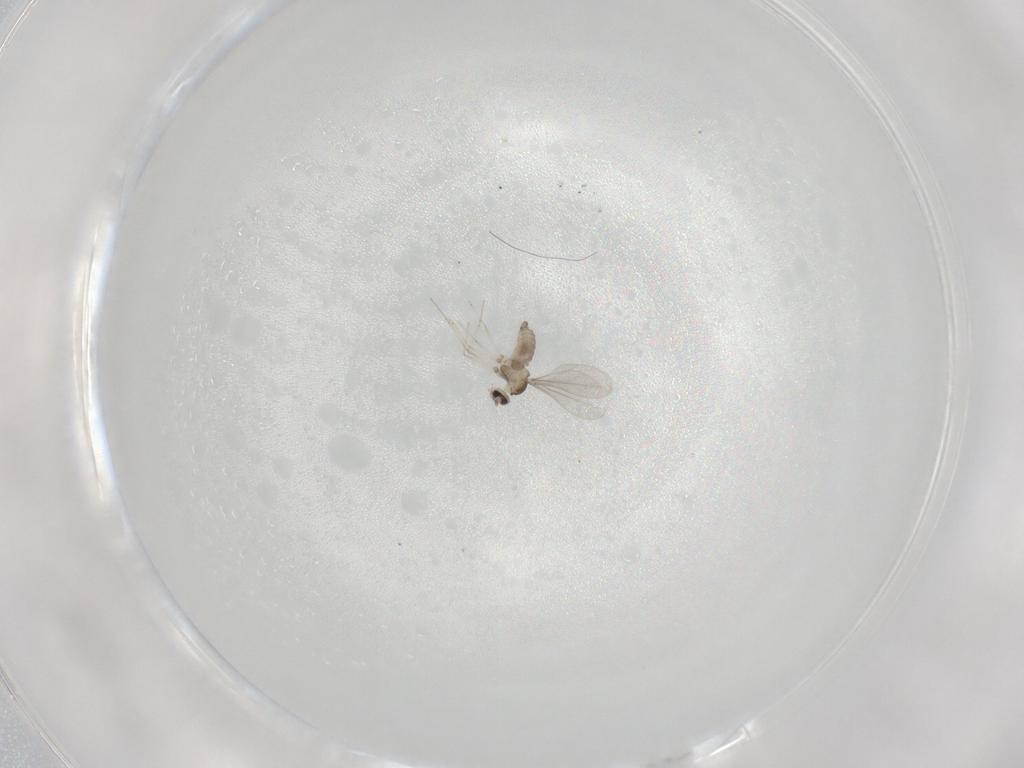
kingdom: Animalia
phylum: Arthropoda
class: Insecta
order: Diptera
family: Cecidomyiidae
